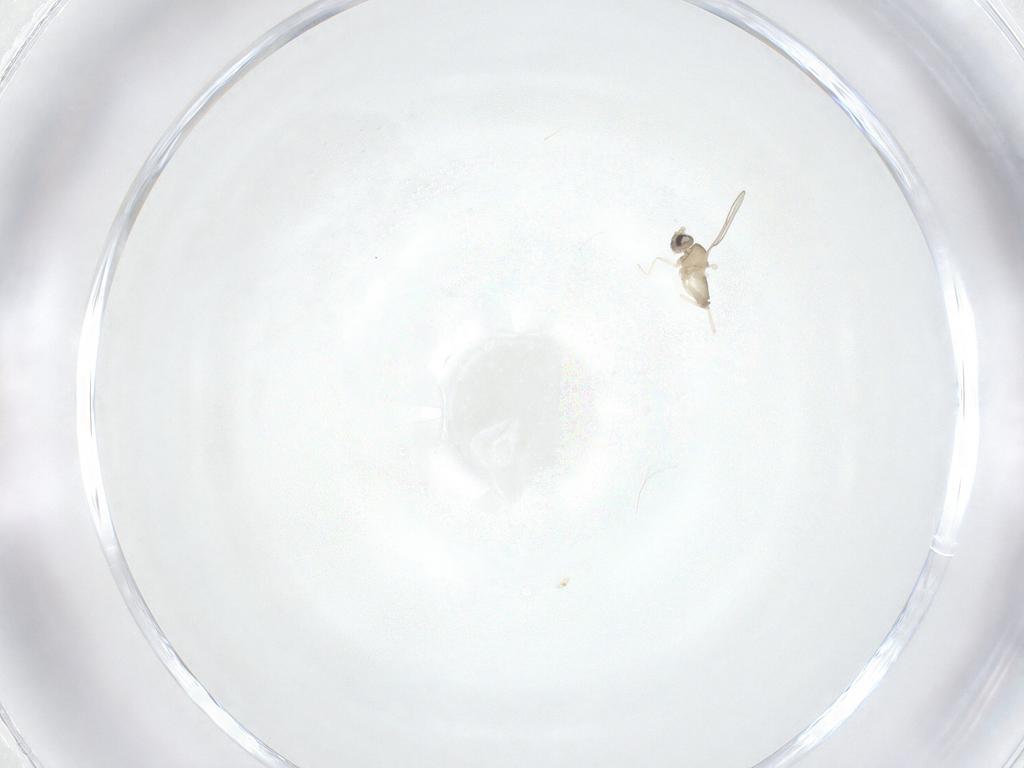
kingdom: Animalia
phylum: Arthropoda
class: Insecta
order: Diptera
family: Cecidomyiidae
